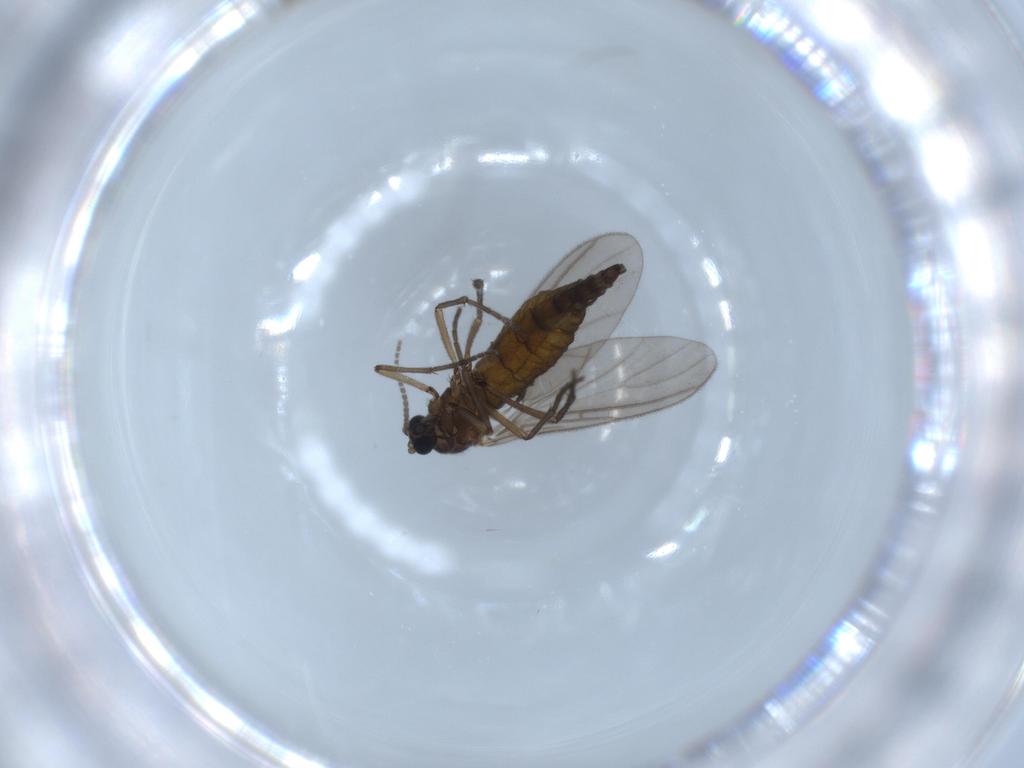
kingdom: Animalia
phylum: Arthropoda
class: Insecta
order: Diptera
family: Sciaridae
